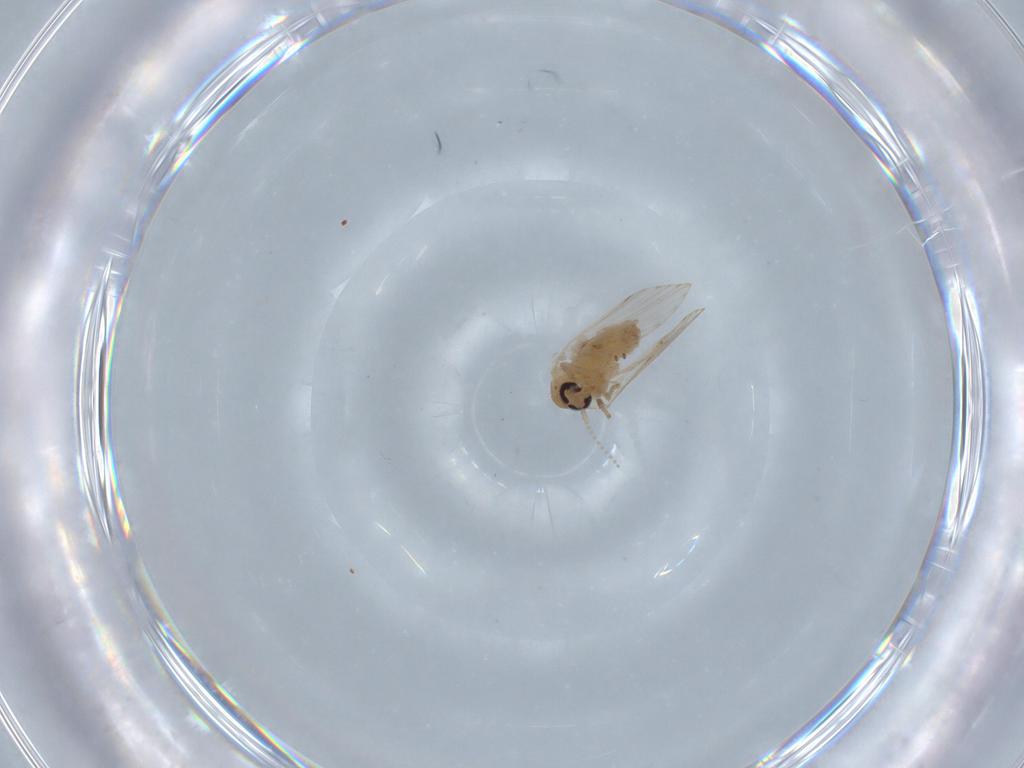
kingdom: Animalia
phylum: Arthropoda
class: Insecta
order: Diptera
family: Psychodidae
